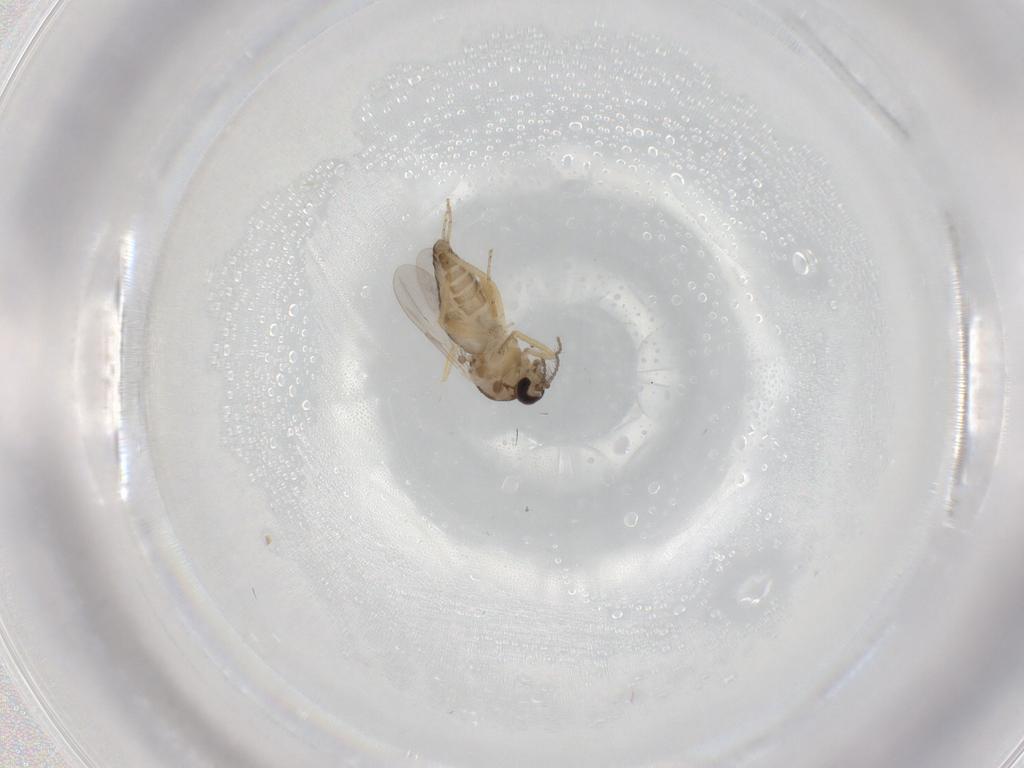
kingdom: Animalia
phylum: Arthropoda
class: Insecta
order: Diptera
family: Ceratopogonidae
